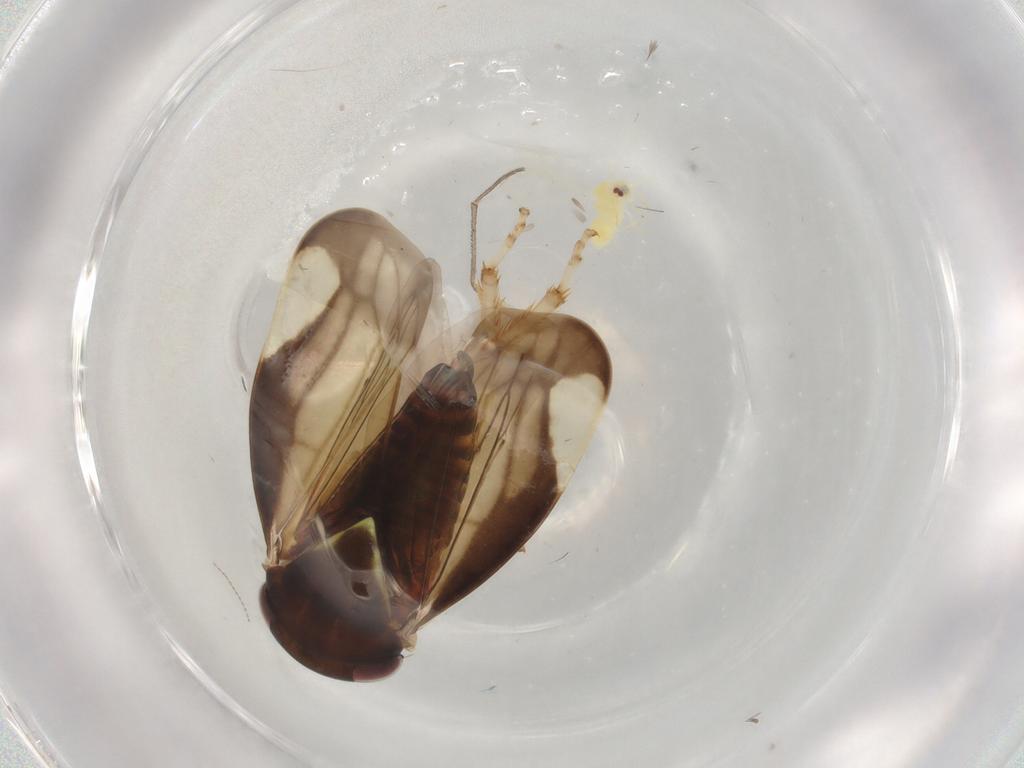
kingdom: Animalia
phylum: Arthropoda
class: Insecta
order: Hemiptera
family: Aleyrodidae
